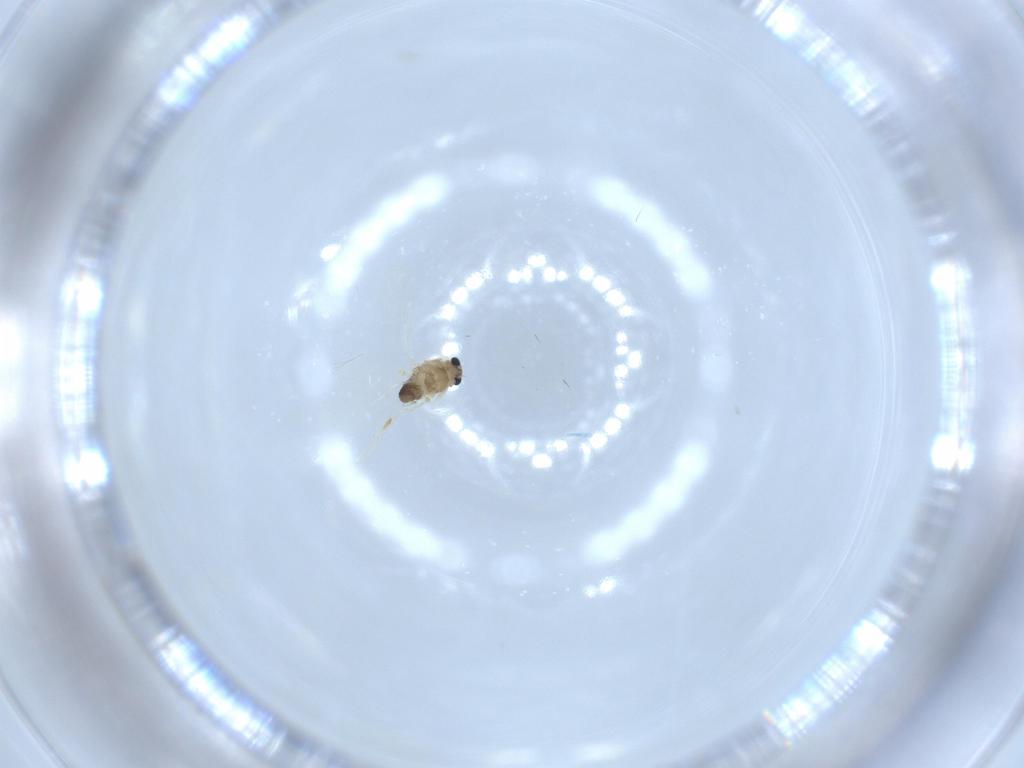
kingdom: Animalia
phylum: Arthropoda
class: Insecta
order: Diptera
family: Chironomidae
